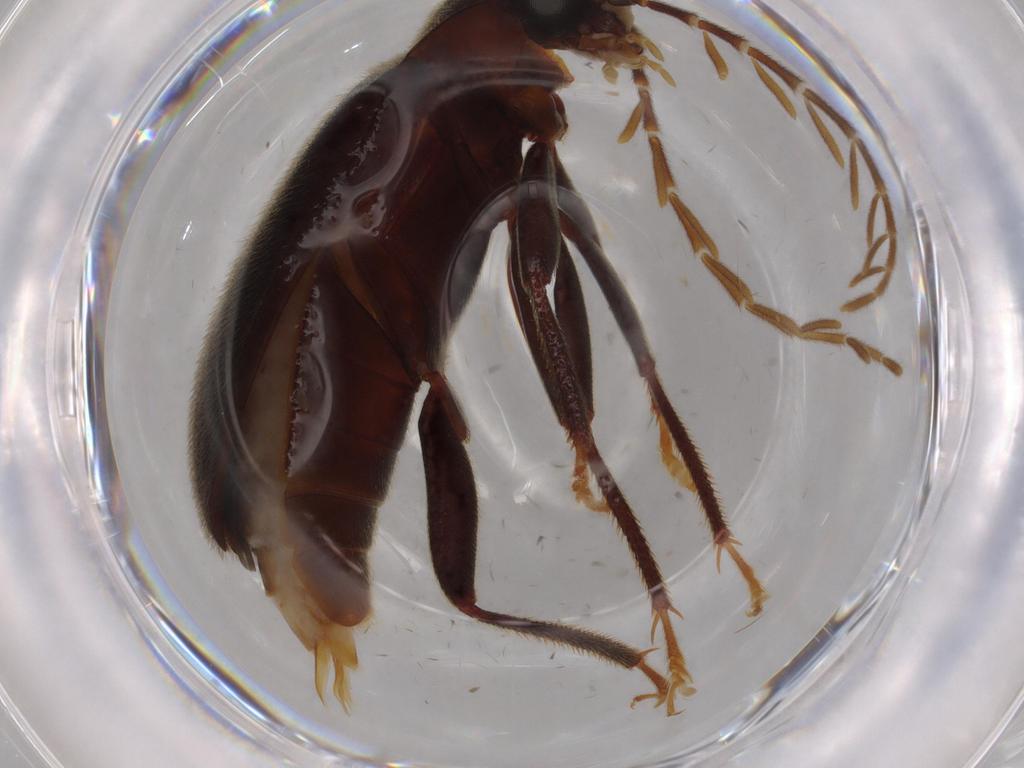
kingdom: Animalia
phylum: Arthropoda
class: Insecta
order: Coleoptera
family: Ptilodactylidae
